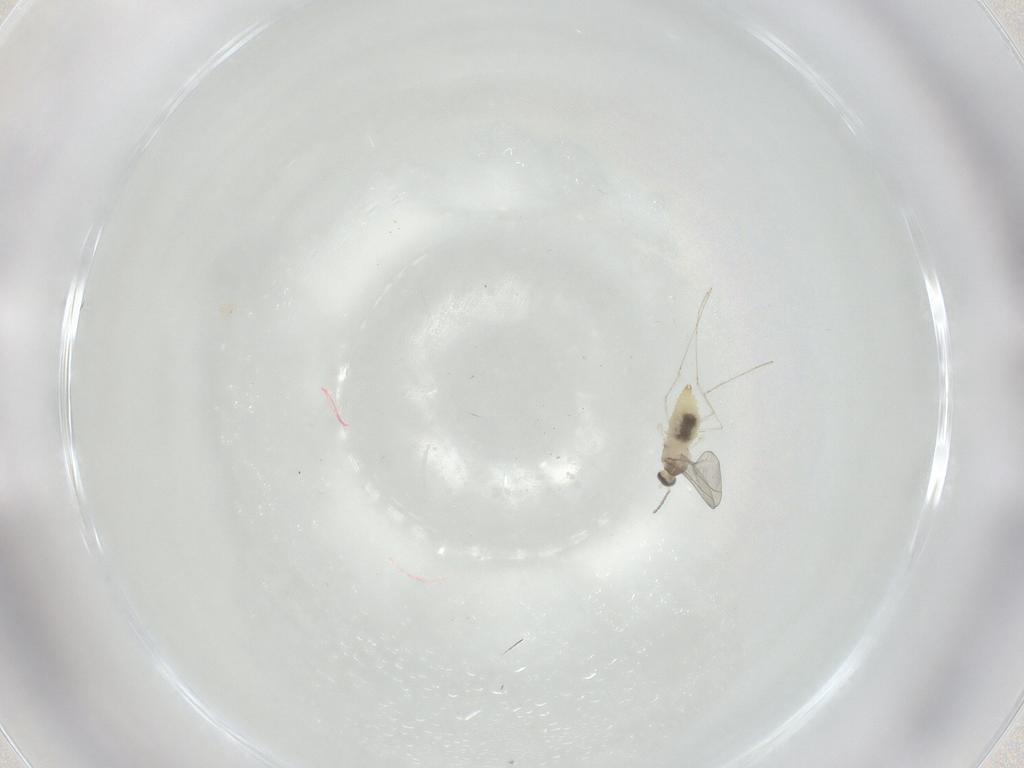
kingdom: Animalia
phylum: Arthropoda
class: Insecta
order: Diptera
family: Cecidomyiidae
